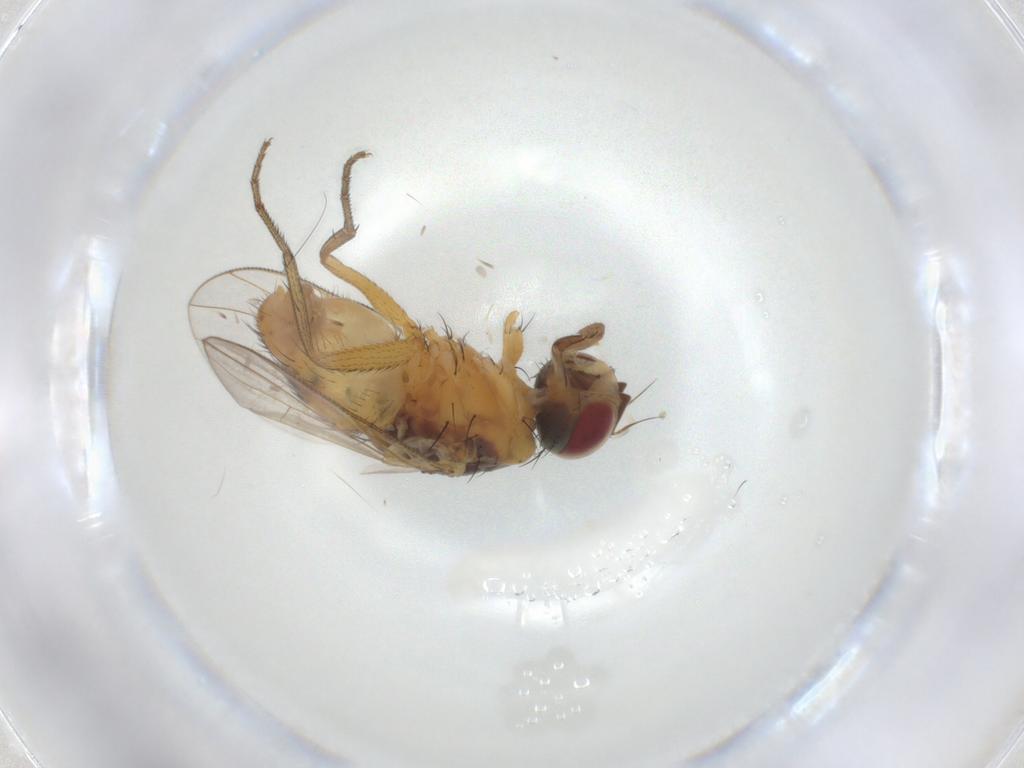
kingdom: Animalia
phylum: Arthropoda
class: Insecta
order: Diptera
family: Muscidae
